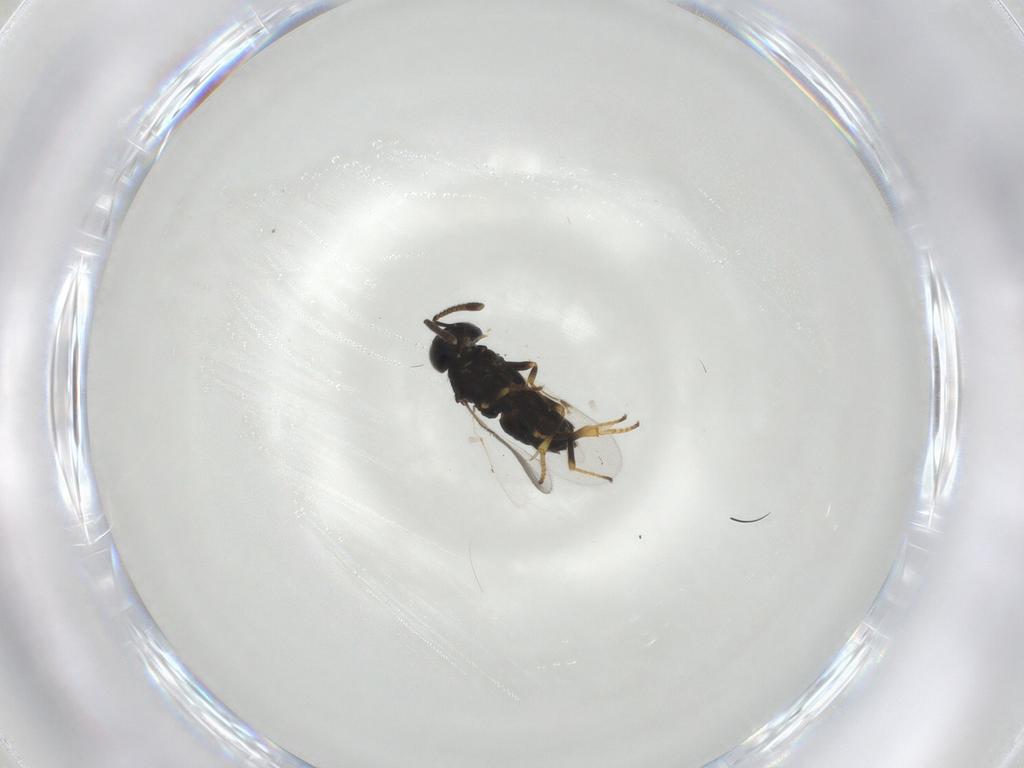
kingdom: Animalia
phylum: Arthropoda
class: Insecta
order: Hymenoptera
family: Encyrtidae
